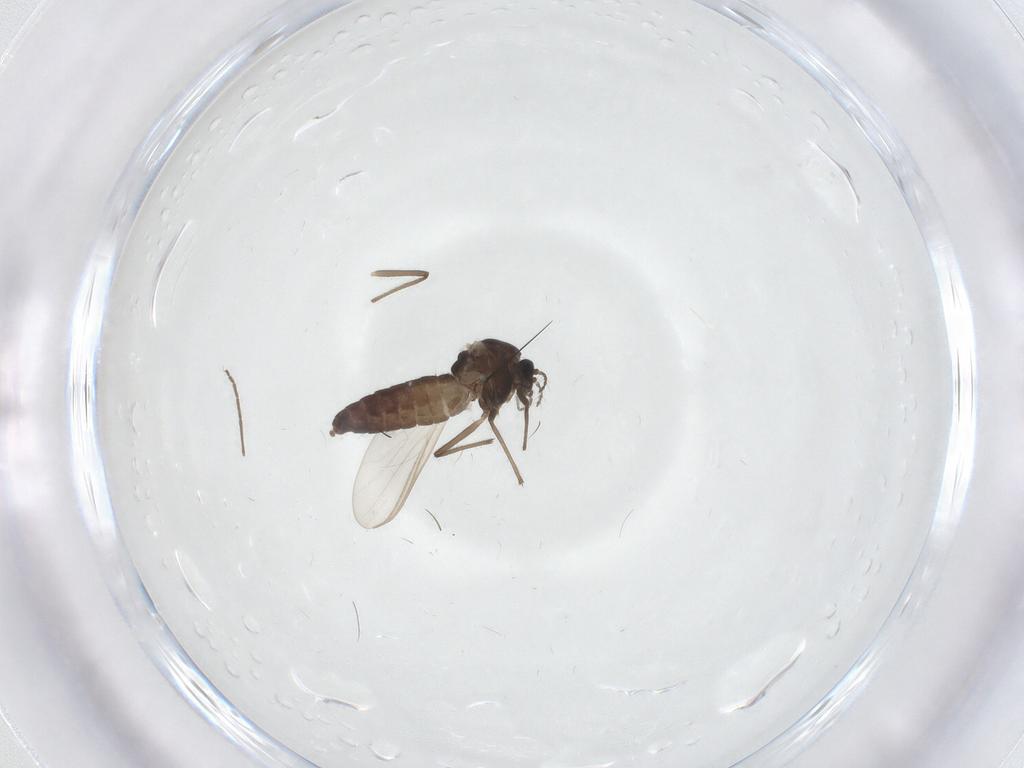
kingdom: Animalia
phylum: Arthropoda
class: Insecta
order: Diptera
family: Chironomidae
